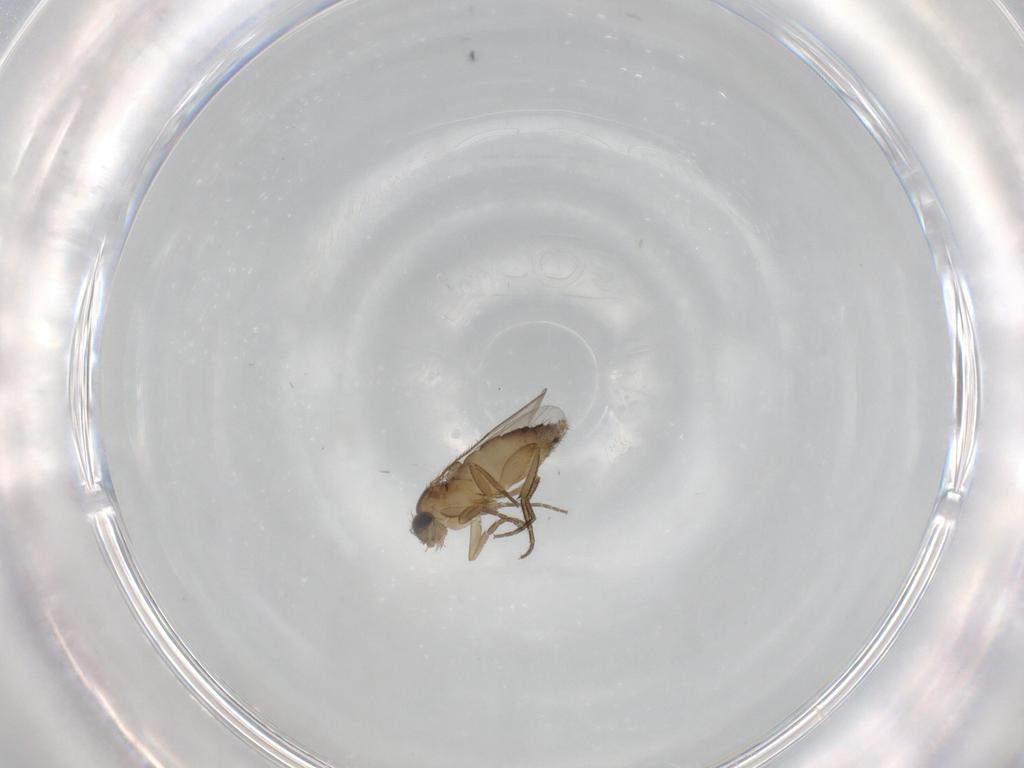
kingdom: Animalia
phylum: Arthropoda
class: Insecta
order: Diptera
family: Phoridae
